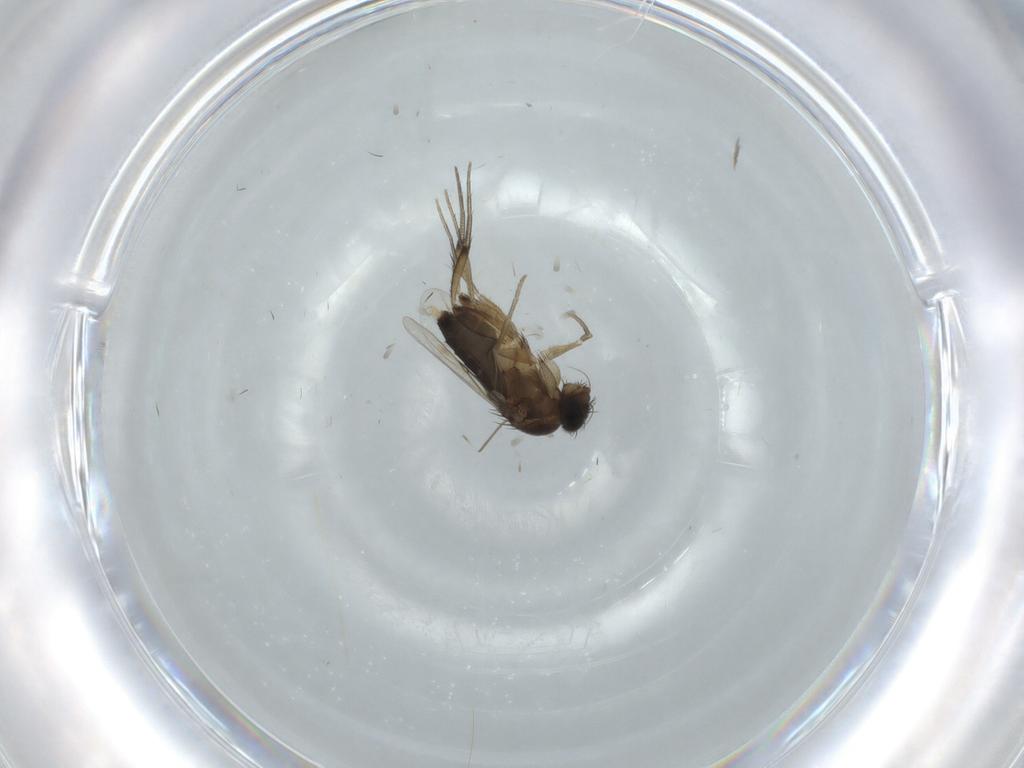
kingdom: Animalia
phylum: Arthropoda
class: Insecta
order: Diptera
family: Phoridae
